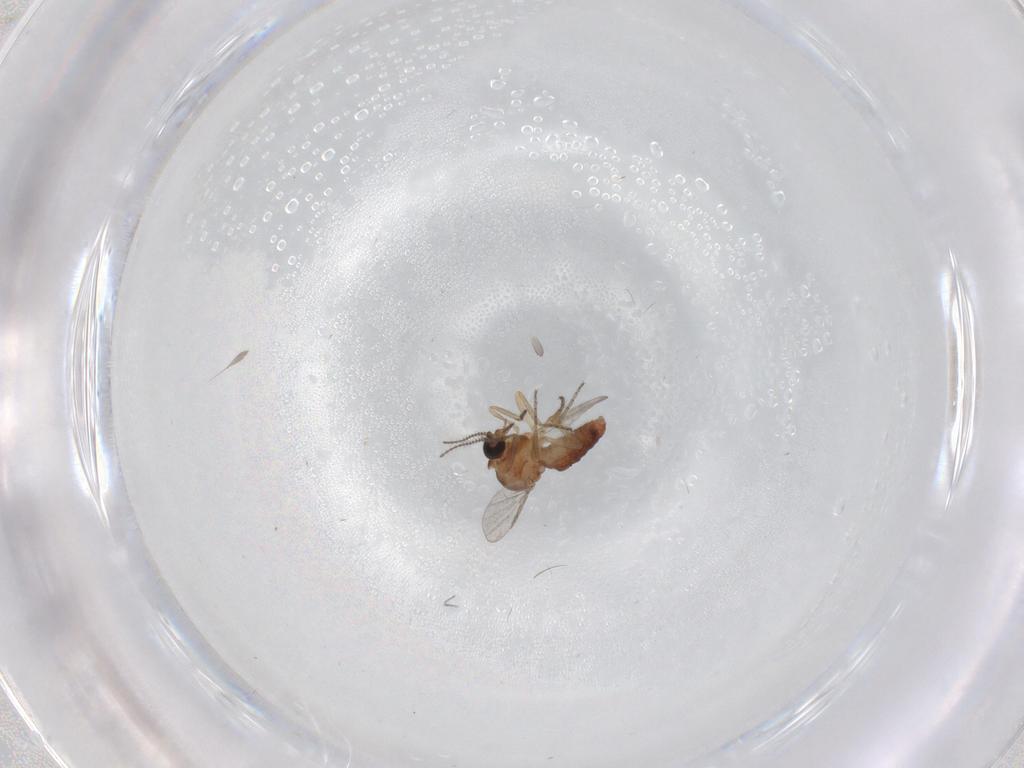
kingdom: Animalia
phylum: Arthropoda
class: Insecta
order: Diptera
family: Ceratopogonidae
